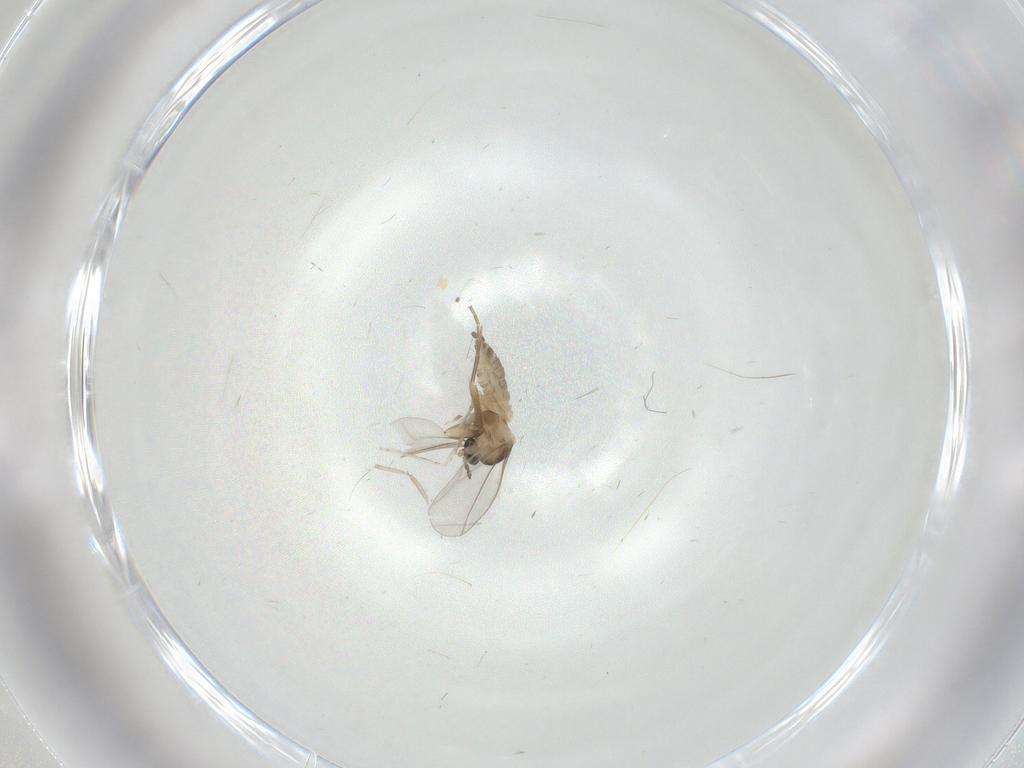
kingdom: Animalia
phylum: Arthropoda
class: Insecta
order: Diptera
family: Cecidomyiidae
